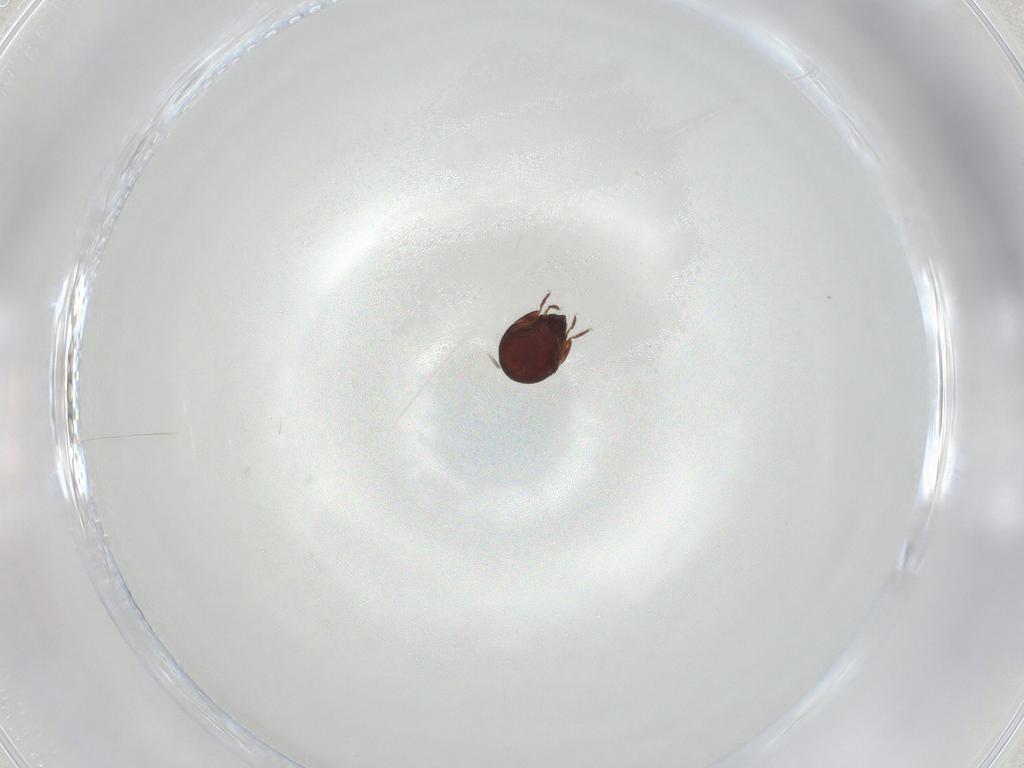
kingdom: Animalia
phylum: Arthropoda
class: Arachnida
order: Sarcoptiformes
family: Humerobatidae
